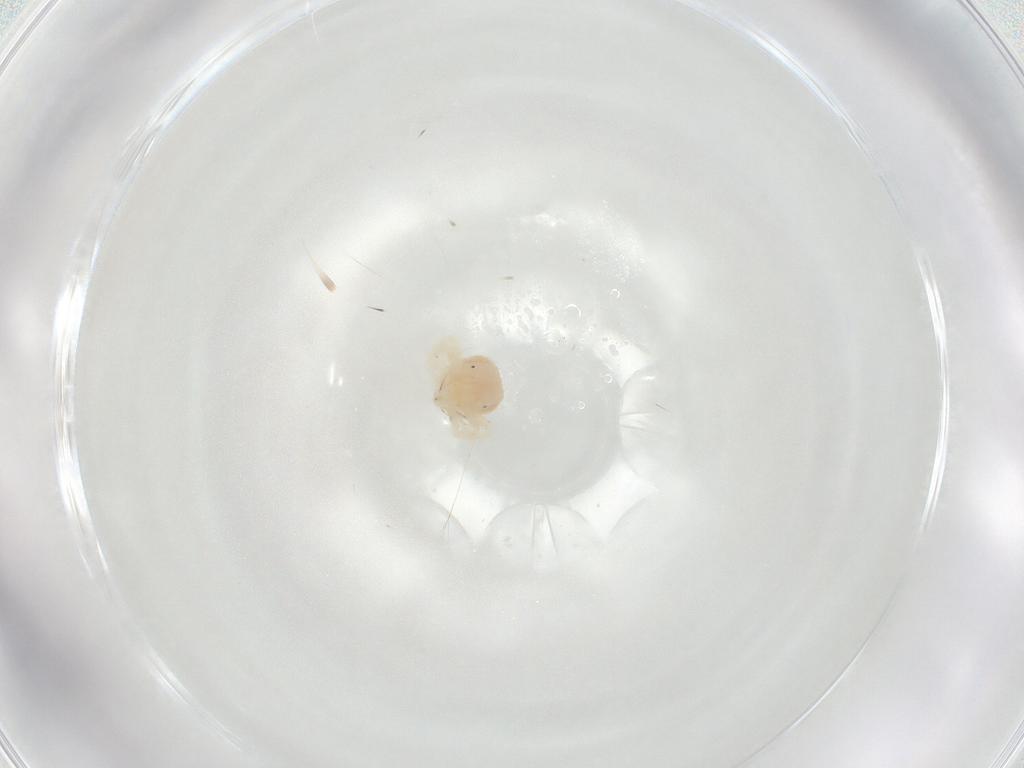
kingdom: Animalia
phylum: Arthropoda
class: Arachnida
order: Trombidiformes
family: Anystidae
